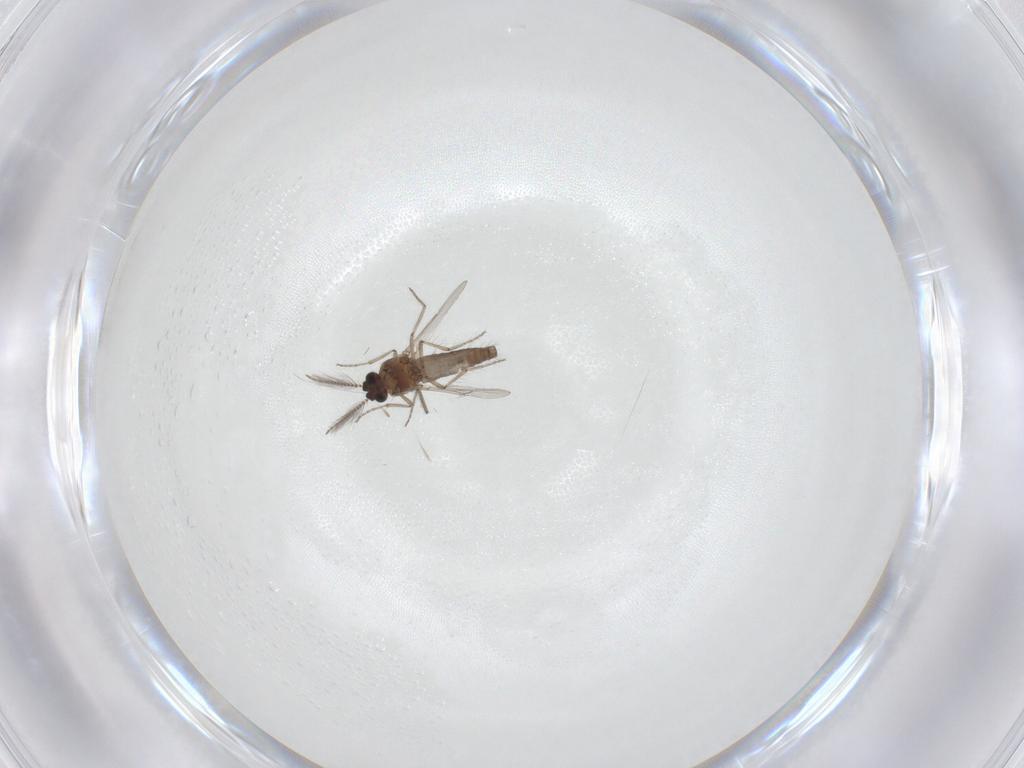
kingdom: Animalia
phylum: Arthropoda
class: Insecta
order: Diptera
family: Ceratopogonidae
